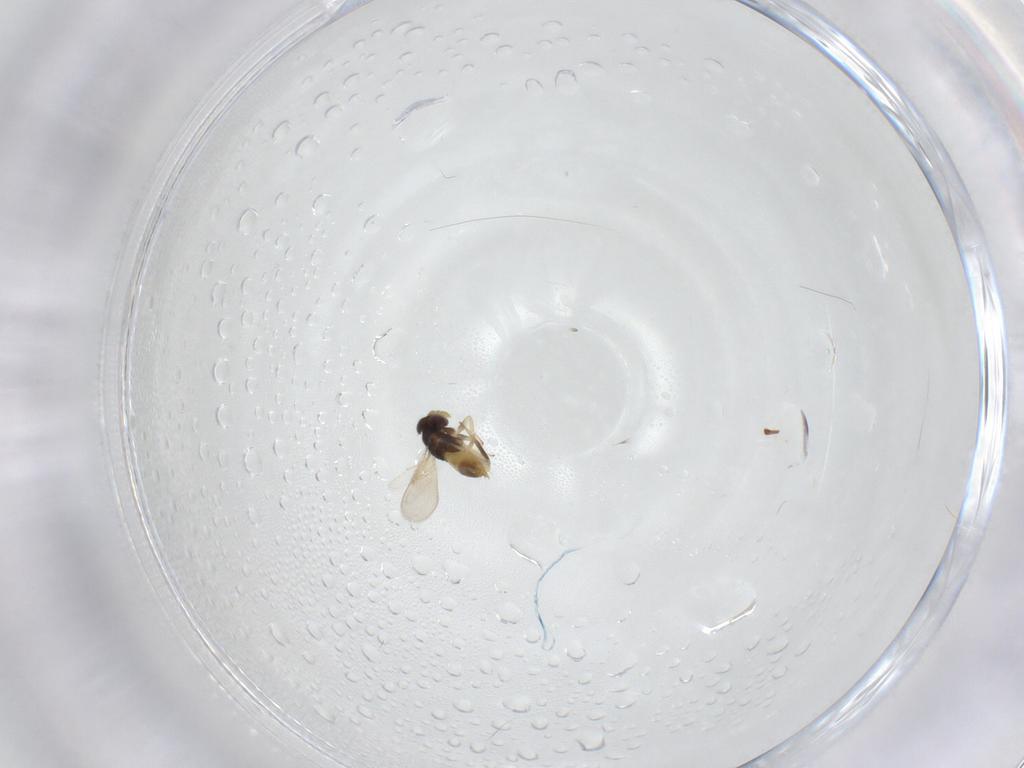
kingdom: Animalia
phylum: Arthropoda
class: Insecta
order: Hymenoptera
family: Aphelinidae
